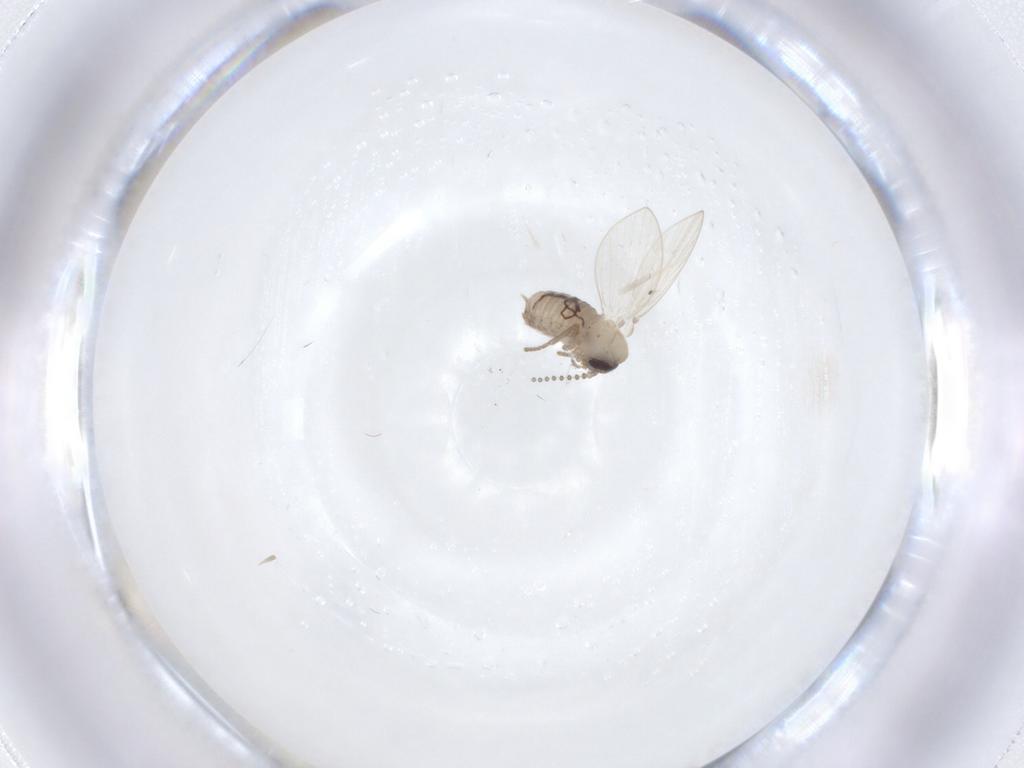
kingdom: Animalia
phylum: Arthropoda
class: Insecta
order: Diptera
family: Psychodidae
